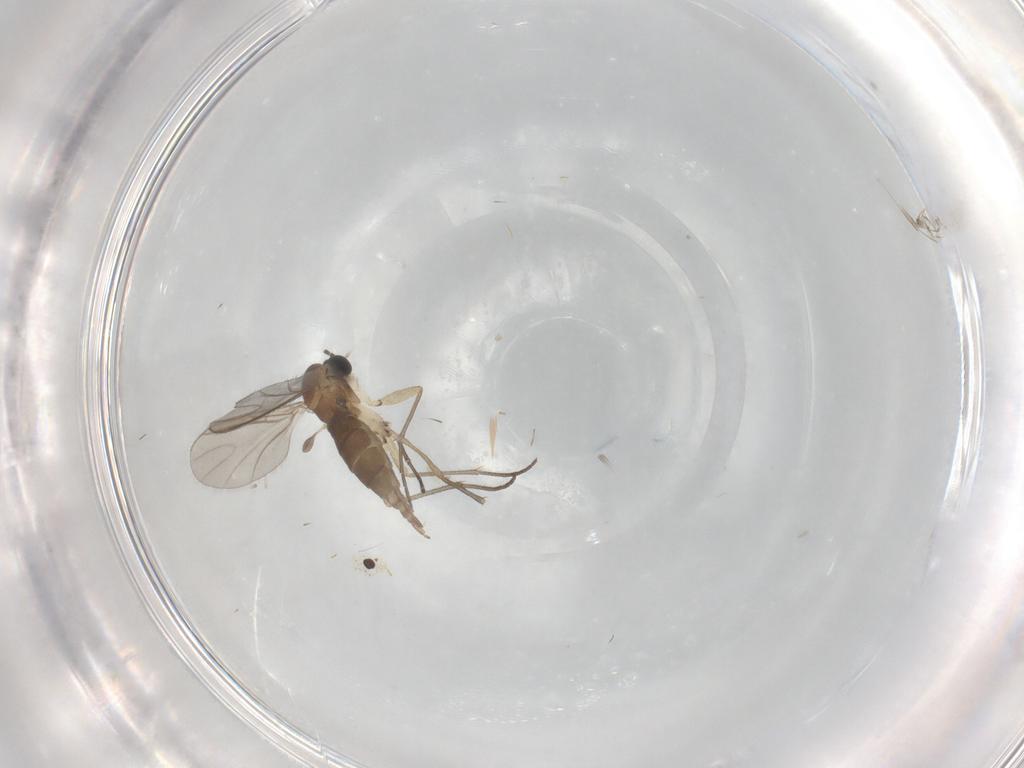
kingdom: Animalia
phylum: Arthropoda
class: Insecta
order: Diptera
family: Sciaridae
